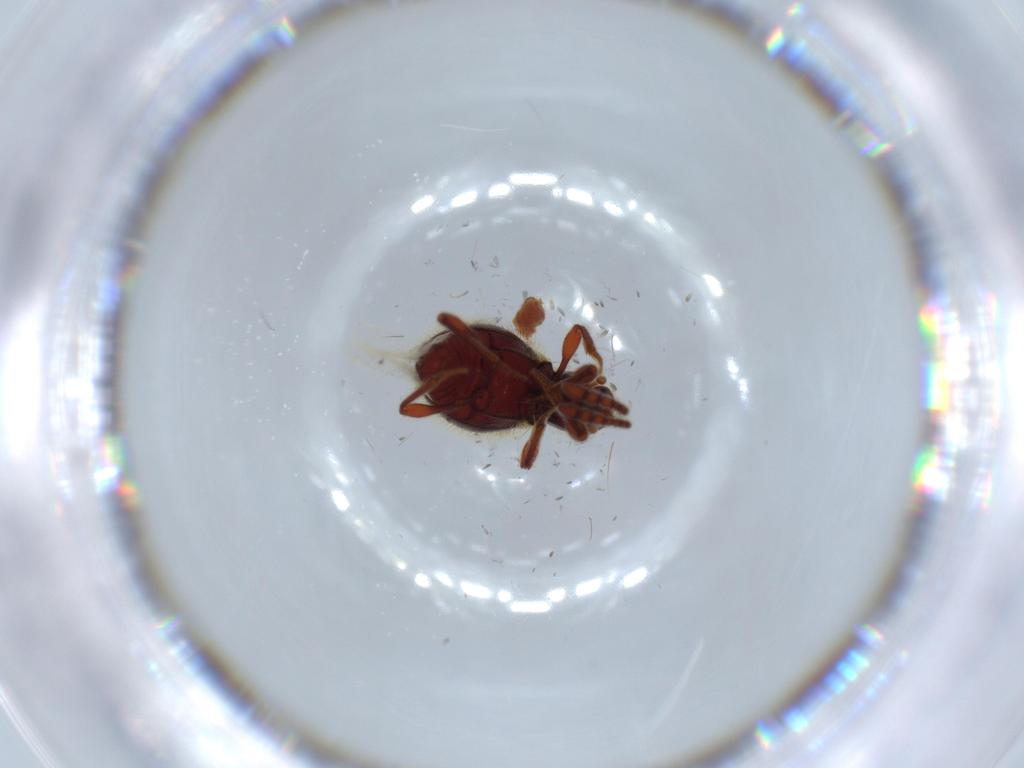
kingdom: Animalia
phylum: Arthropoda
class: Insecta
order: Coleoptera
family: Staphylinidae
